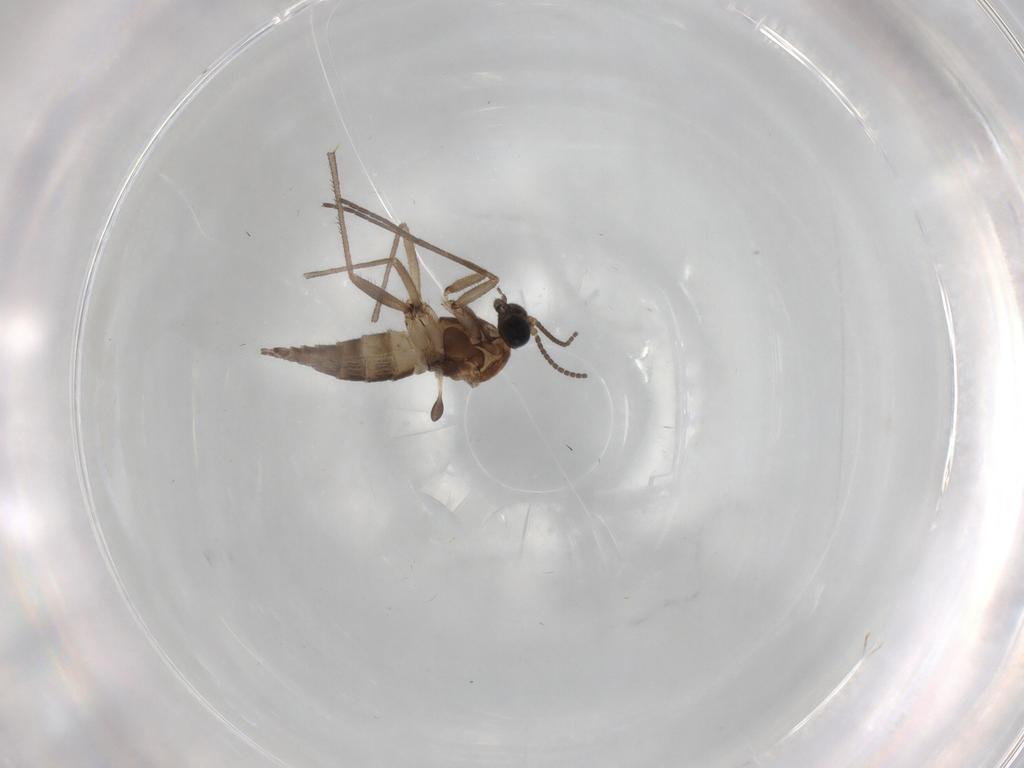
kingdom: Animalia
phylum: Arthropoda
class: Insecta
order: Diptera
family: Sciaridae
